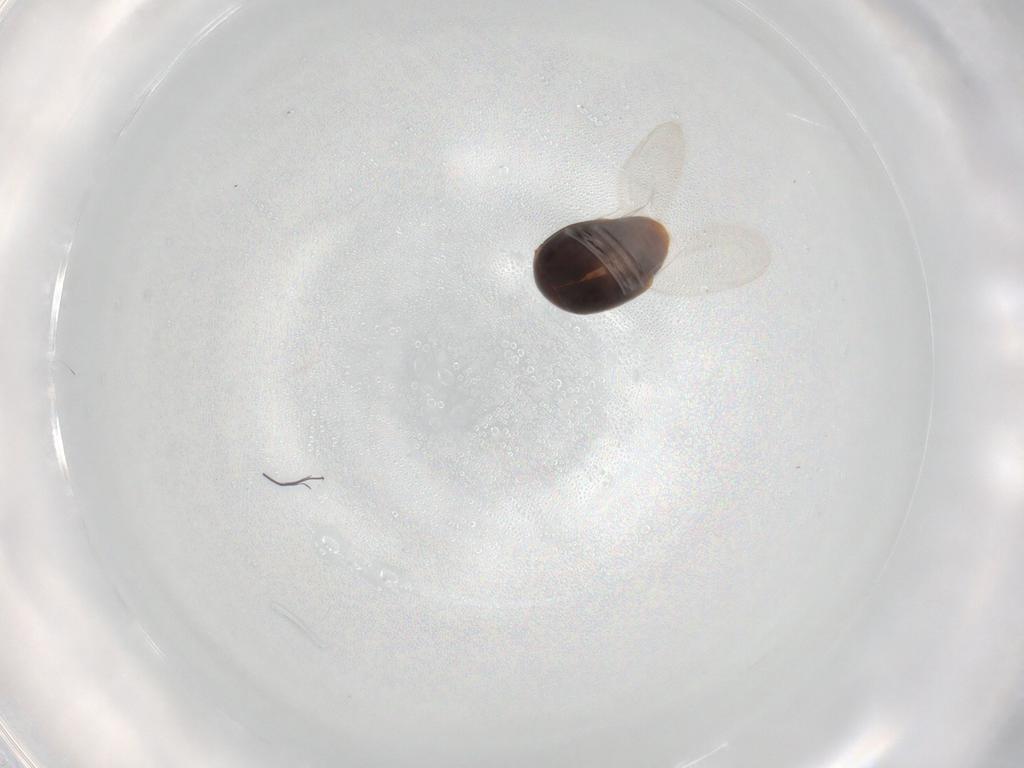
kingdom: Animalia
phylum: Arthropoda
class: Insecta
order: Coleoptera
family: Corylophidae
